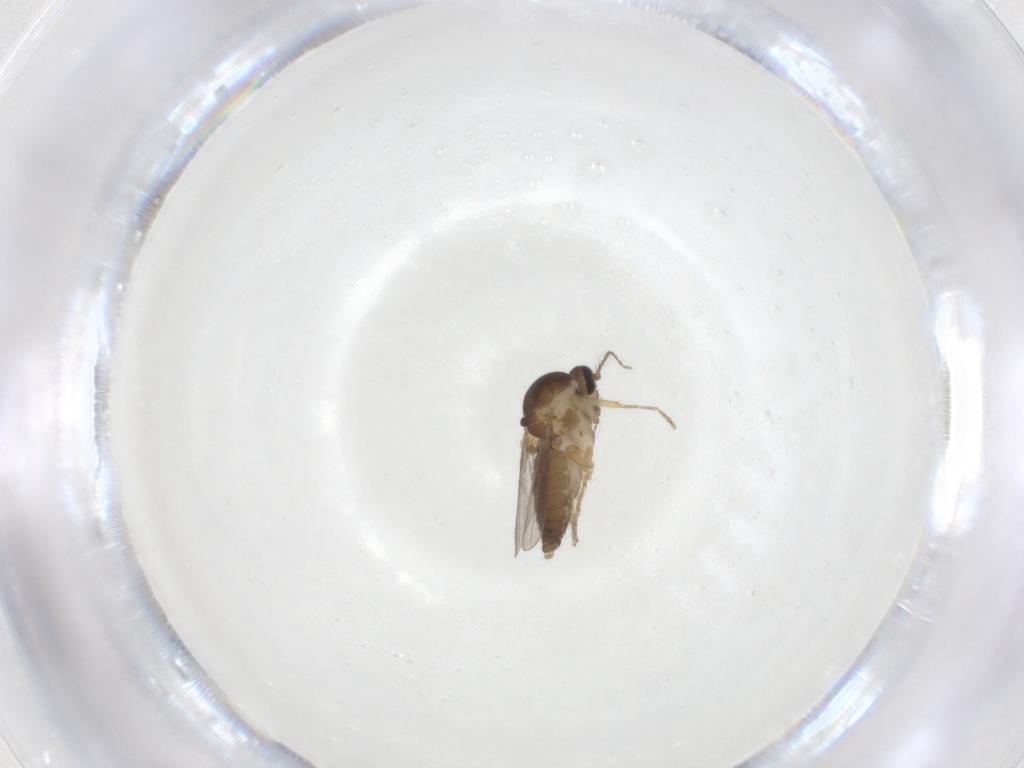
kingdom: Animalia
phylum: Arthropoda
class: Insecta
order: Diptera
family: Ceratopogonidae
